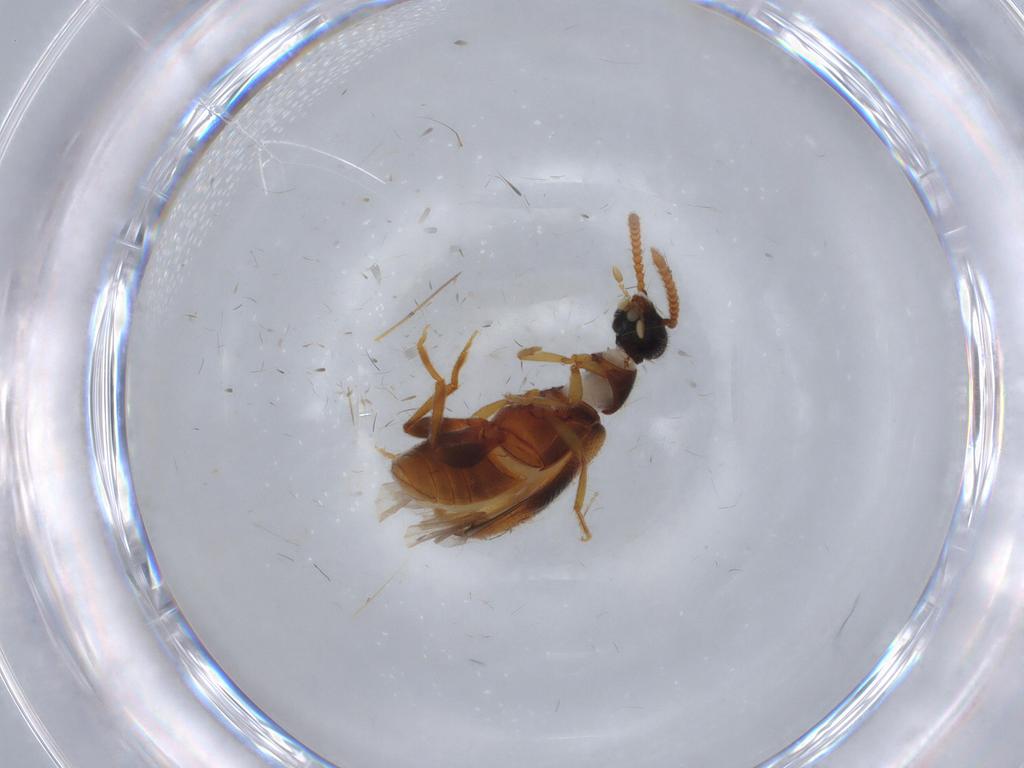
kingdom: Animalia
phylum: Arthropoda
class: Insecta
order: Coleoptera
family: Aderidae
